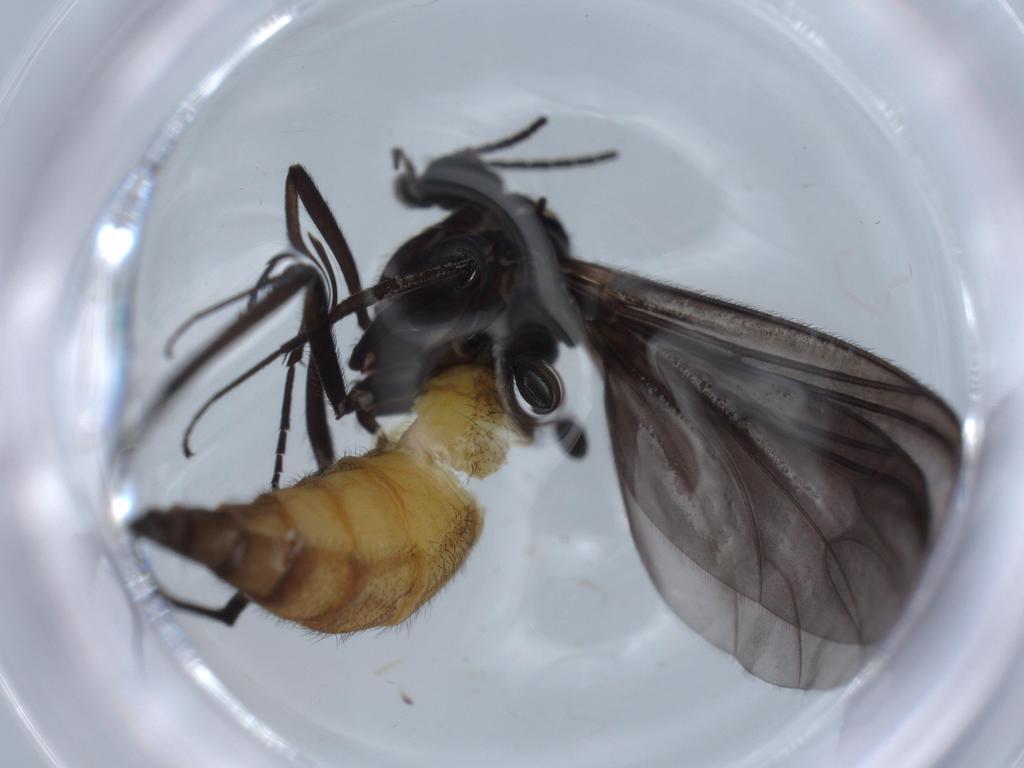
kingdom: Animalia
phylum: Arthropoda
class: Insecta
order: Diptera
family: Sciaridae
